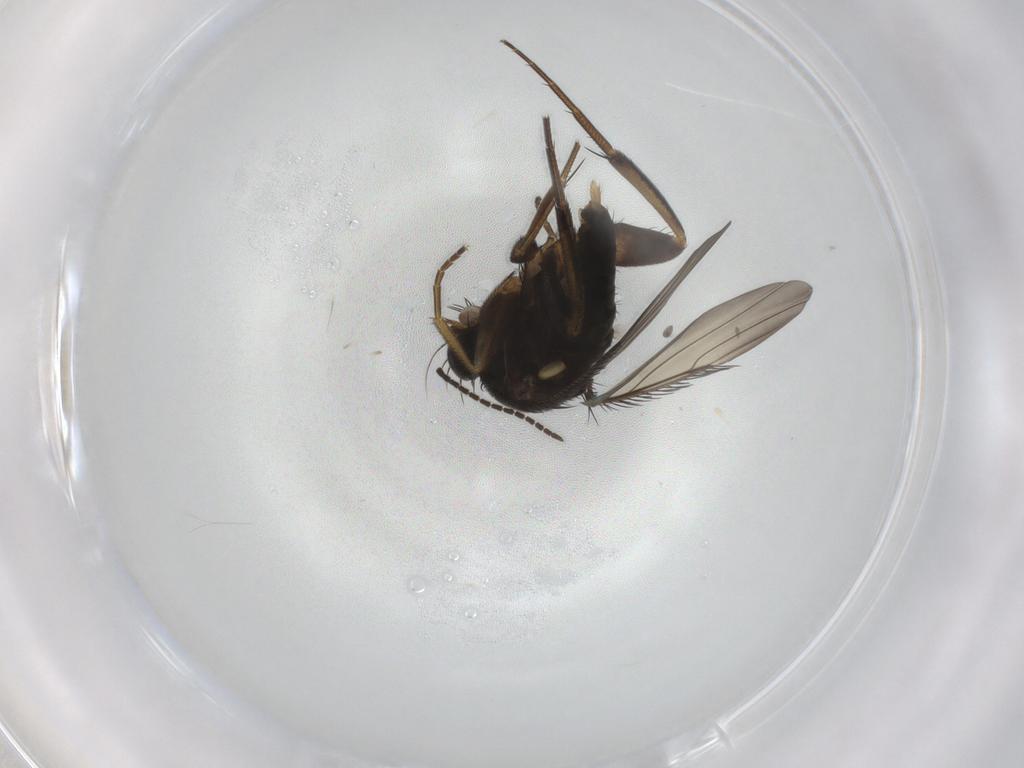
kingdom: Animalia
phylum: Arthropoda
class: Insecta
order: Diptera
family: Phoridae
